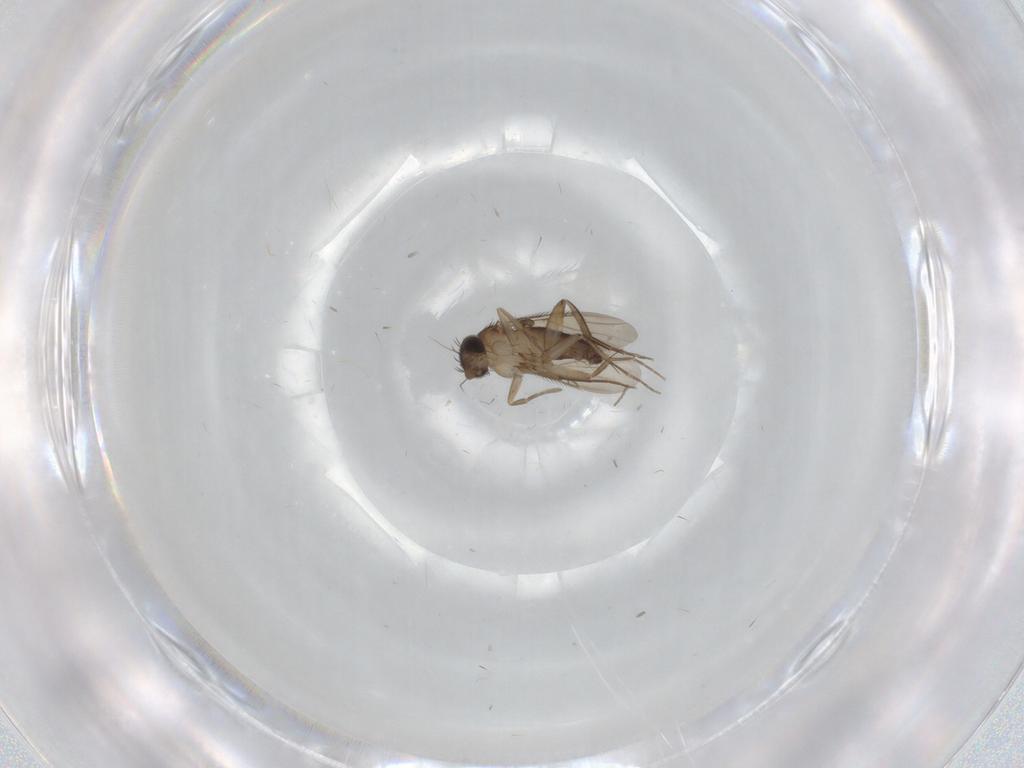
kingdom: Animalia
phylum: Arthropoda
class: Insecta
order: Diptera
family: Phoridae
